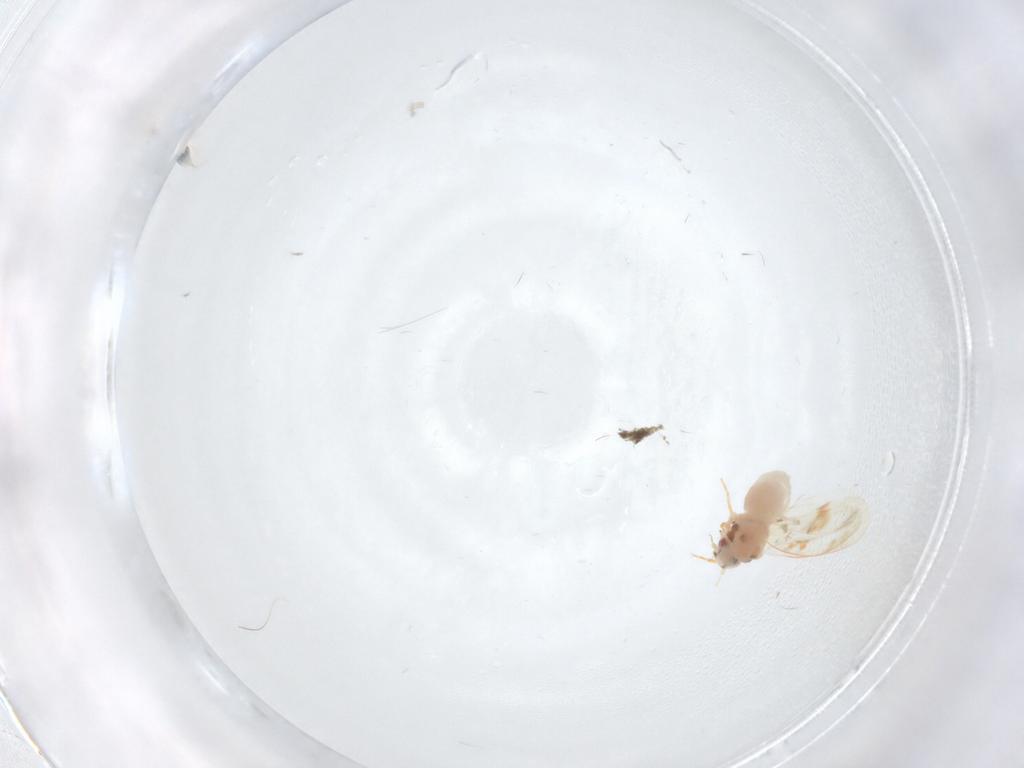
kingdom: Animalia
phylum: Arthropoda
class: Insecta
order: Hemiptera
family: Aleyrodidae
